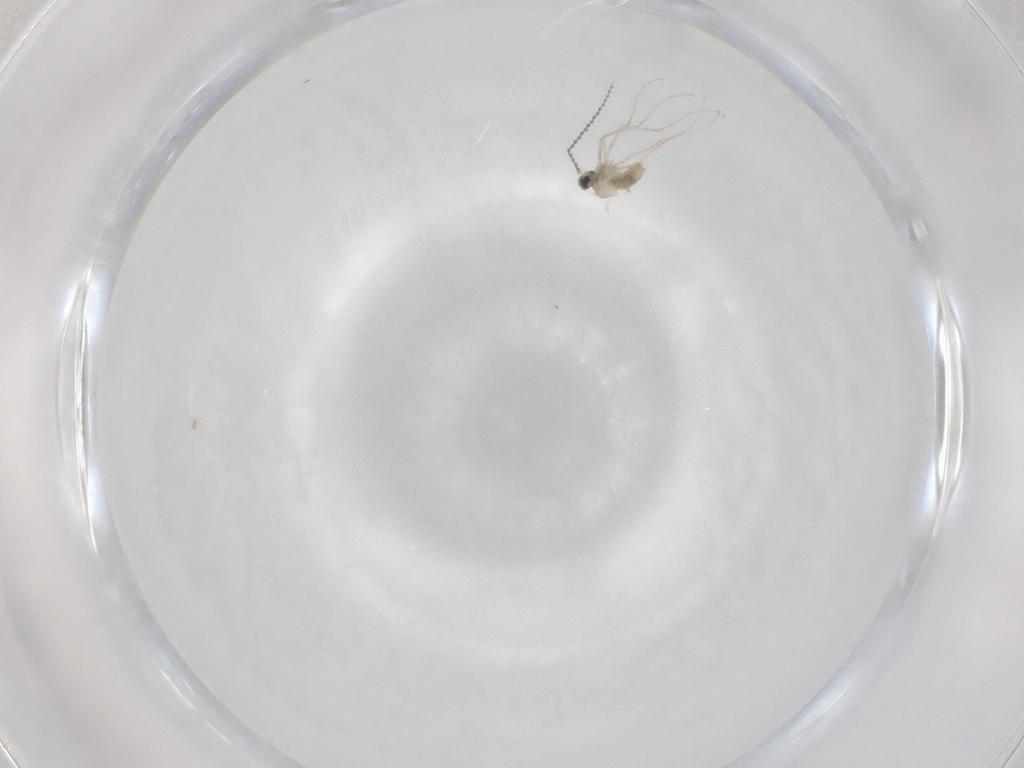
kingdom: Animalia
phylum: Arthropoda
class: Insecta
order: Diptera
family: Cecidomyiidae
